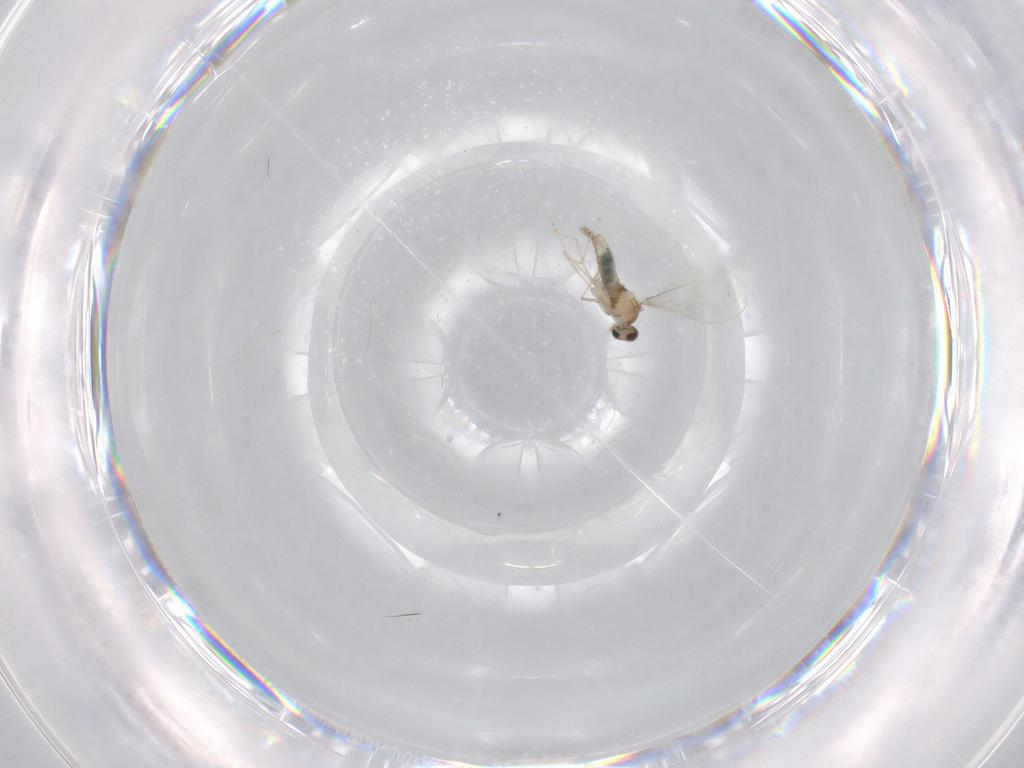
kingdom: Animalia
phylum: Arthropoda
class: Insecta
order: Diptera
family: Cecidomyiidae
